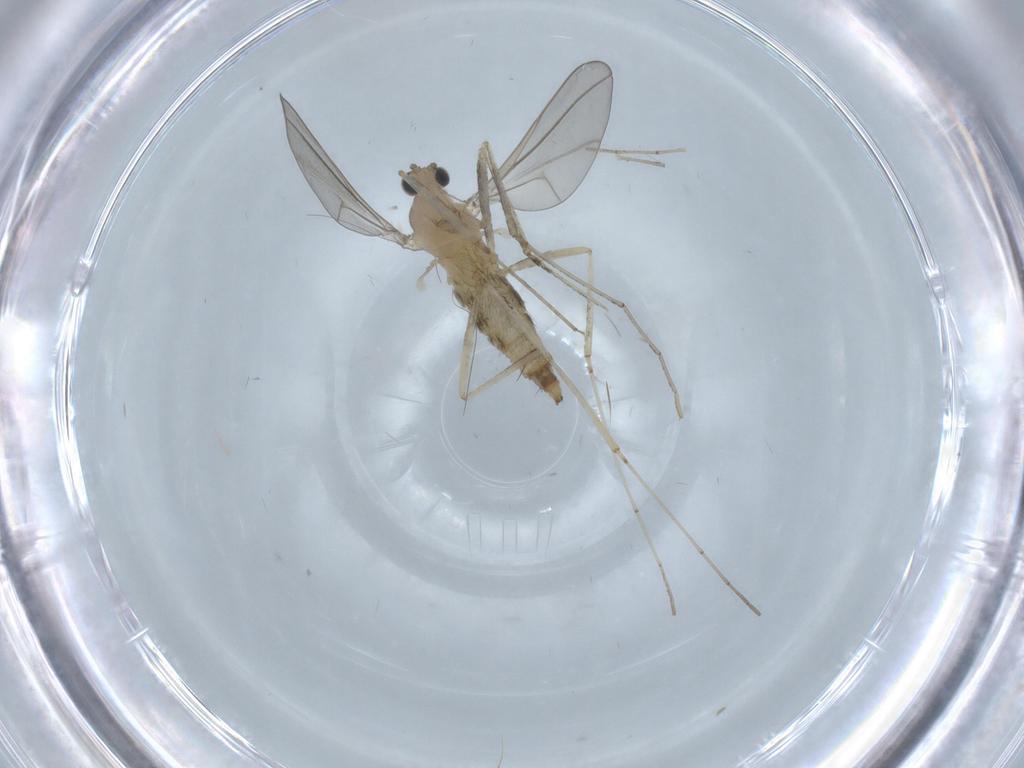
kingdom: Animalia
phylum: Arthropoda
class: Insecta
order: Diptera
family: Cecidomyiidae
